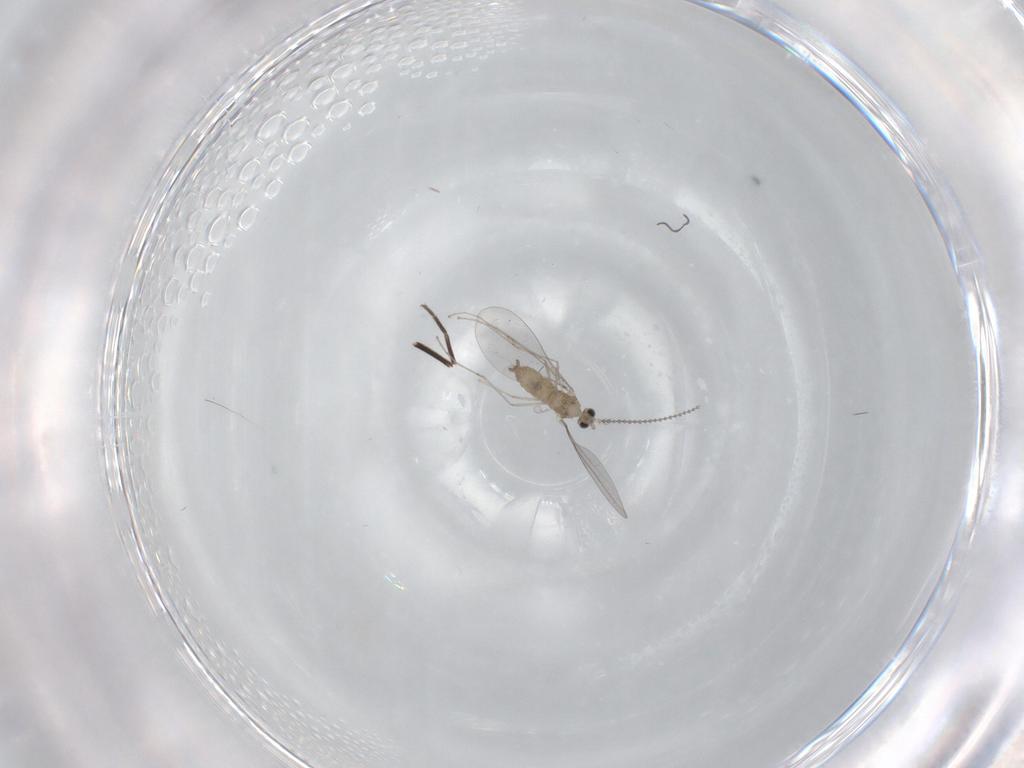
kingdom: Animalia
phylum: Arthropoda
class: Insecta
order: Diptera
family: Phoridae
